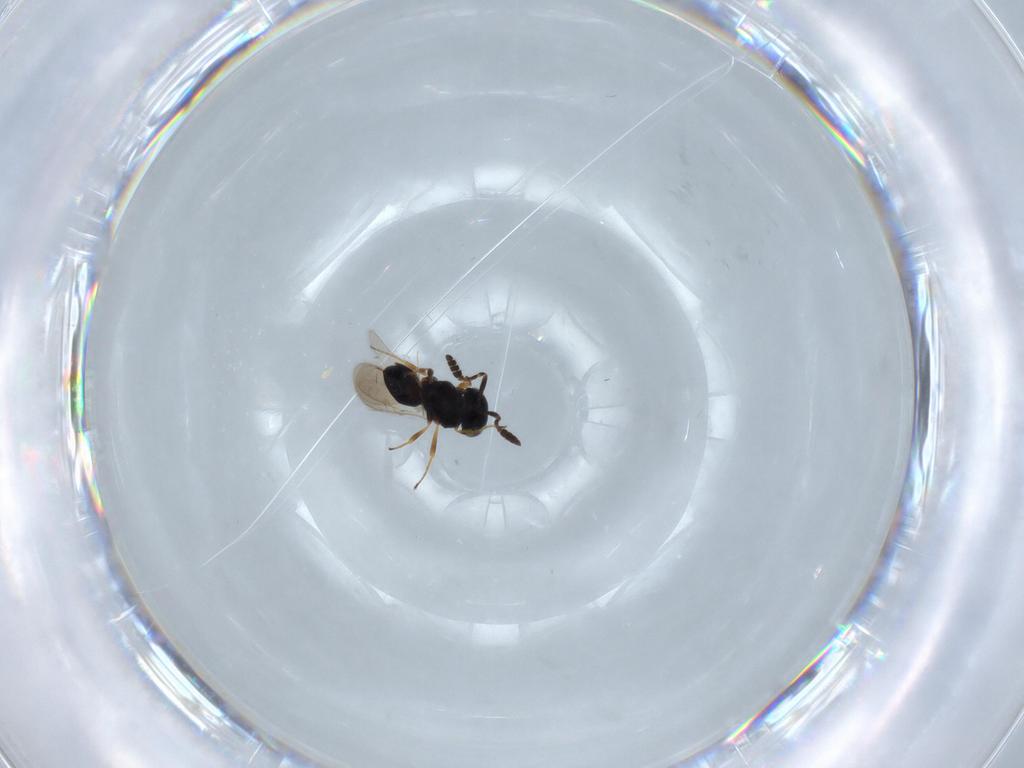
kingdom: Animalia
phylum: Arthropoda
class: Insecta
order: Hymenoptera
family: Scelionidae
